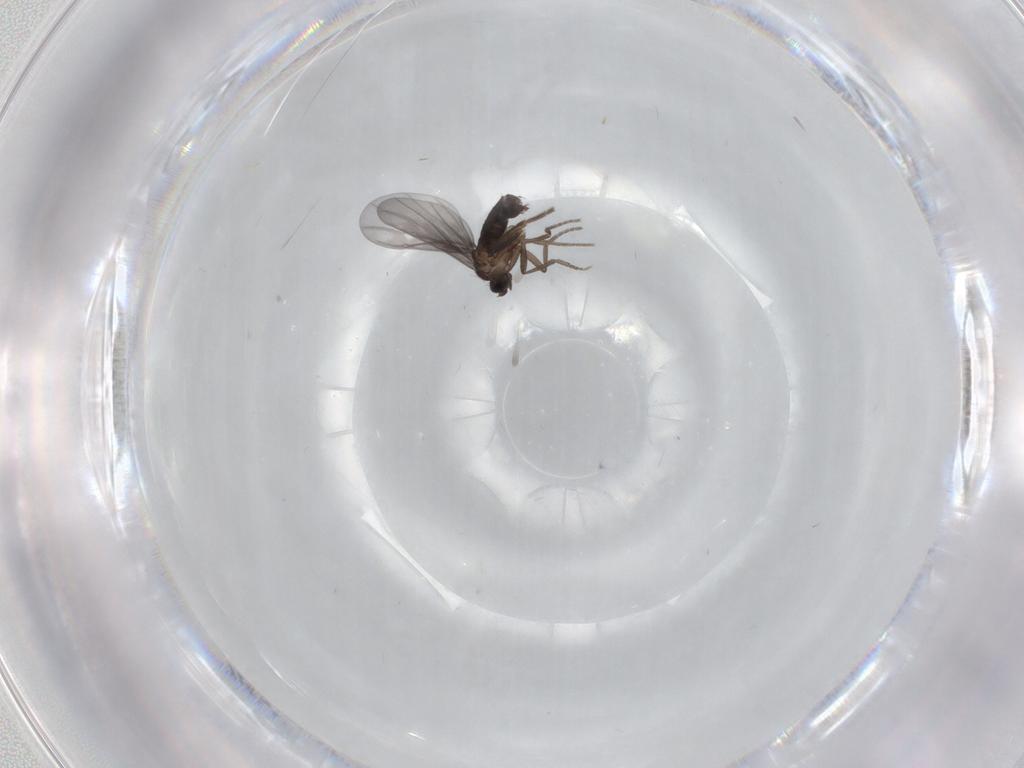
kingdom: Animalia
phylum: Arthropoda
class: Insecta
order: Diptera
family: Phoridae
